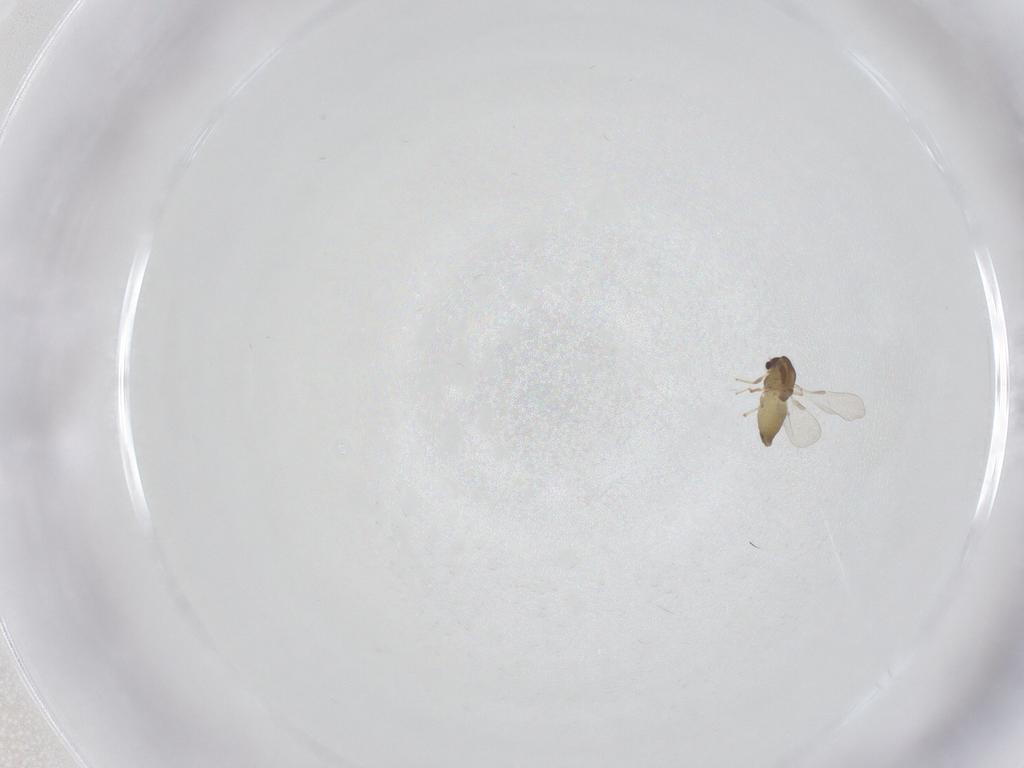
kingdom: Animalia
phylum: Arthropoda
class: Insecta
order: Diptera
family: Chironomidae
